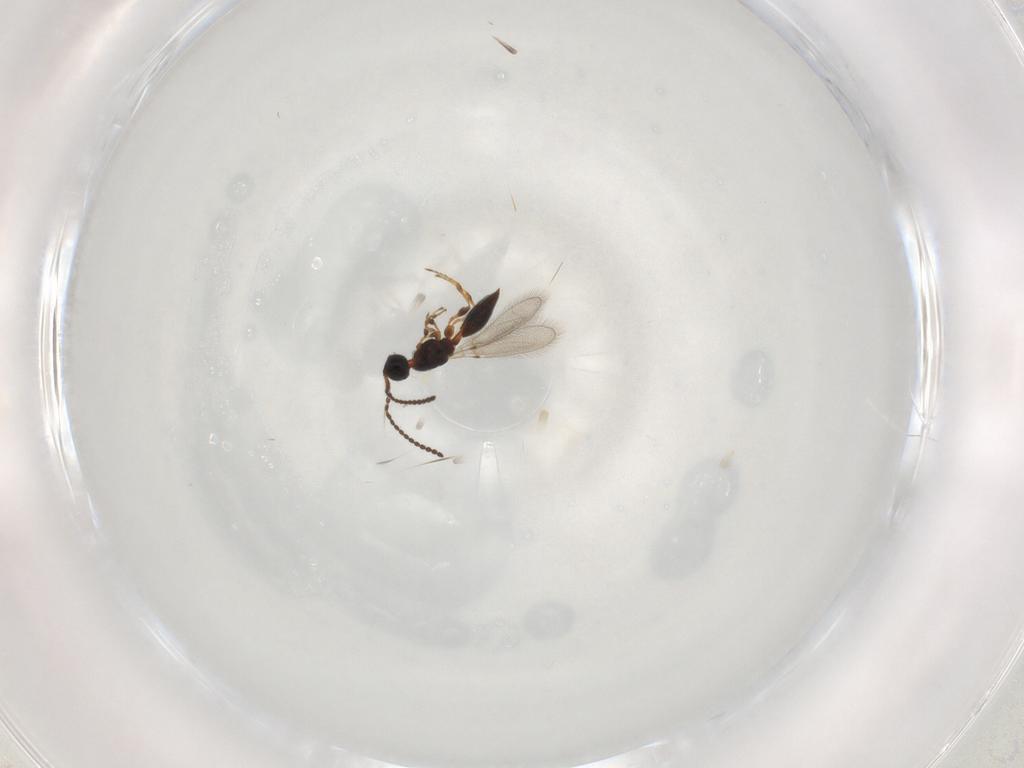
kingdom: Animalia
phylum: Arthropoda
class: Insecta
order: Hymenoptera
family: Diapriidae
